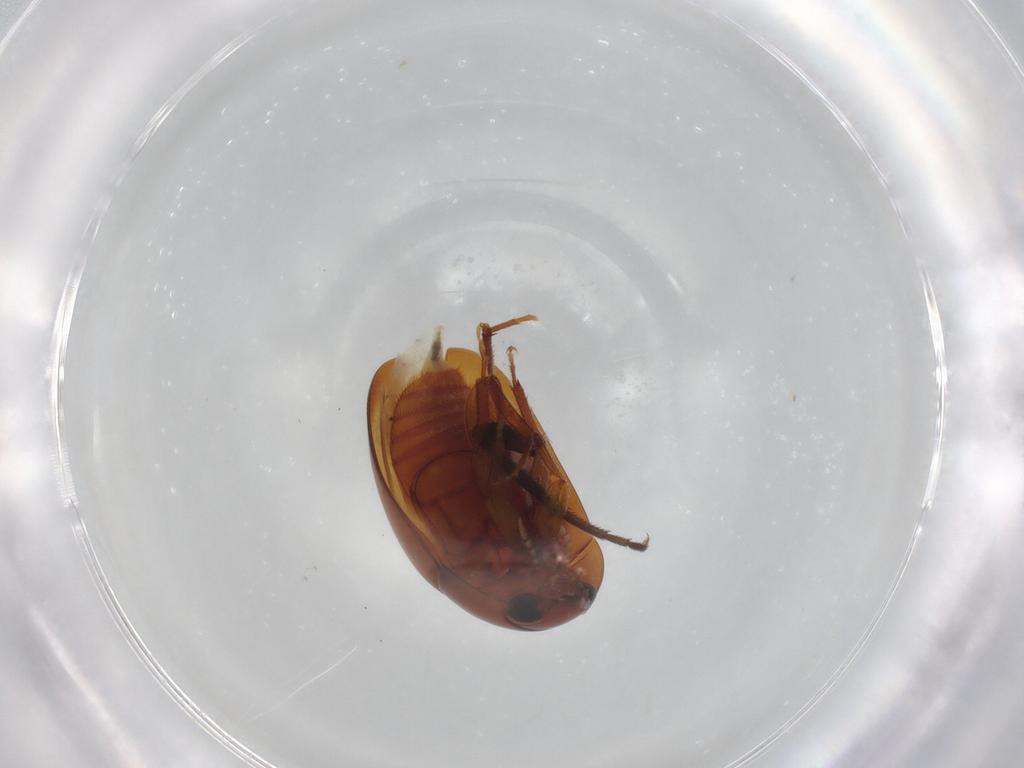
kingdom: Animalia
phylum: Arthropoda
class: Insecta
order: Coleoptera
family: Phalacridae
